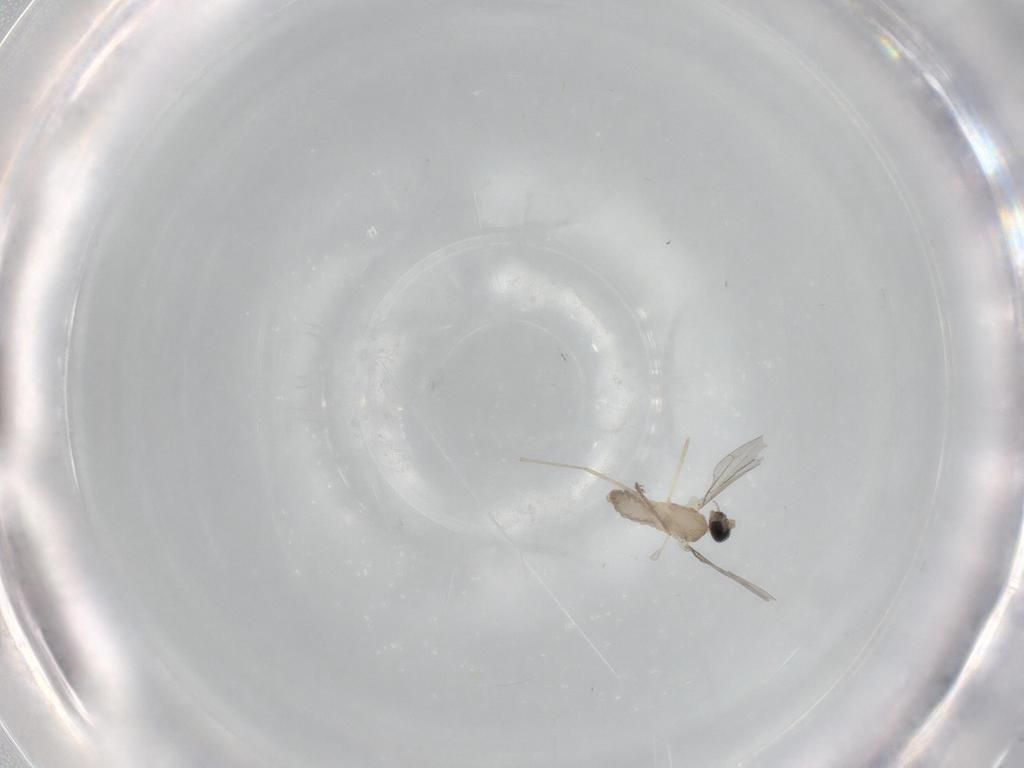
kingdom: Animalia
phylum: Arthropoda
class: Insecta
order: Diptera
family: Cecidomyiidae
